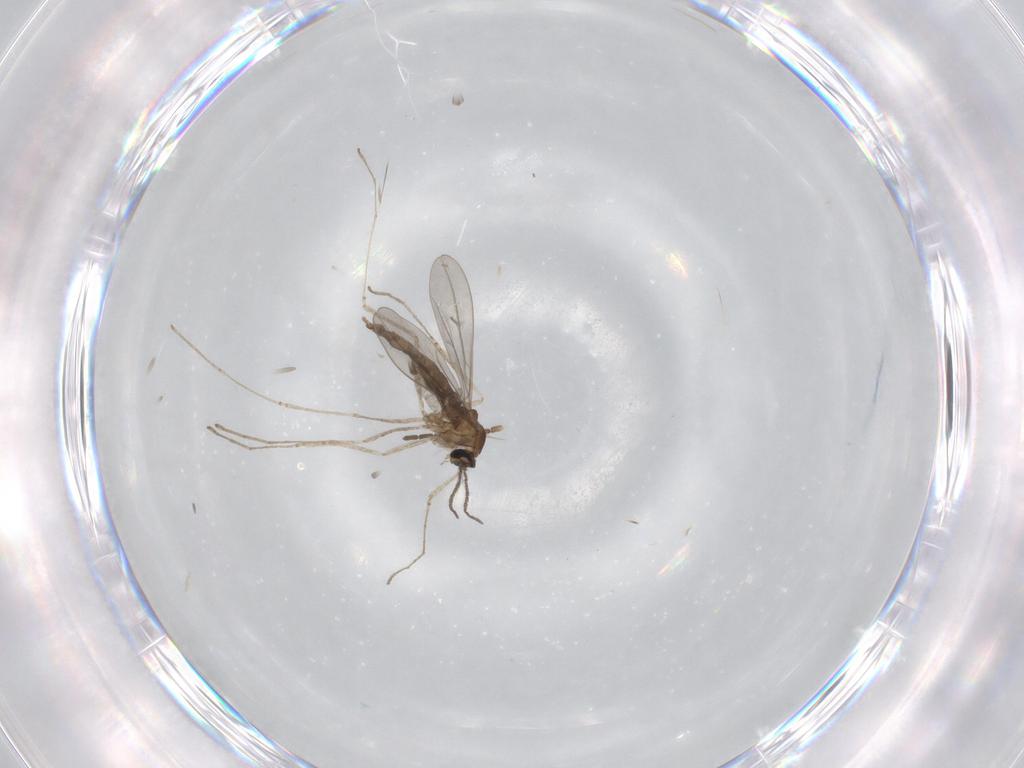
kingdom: Animalia
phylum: Arthropoda
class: Insecta
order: Diptera
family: Cecidomyiidae
